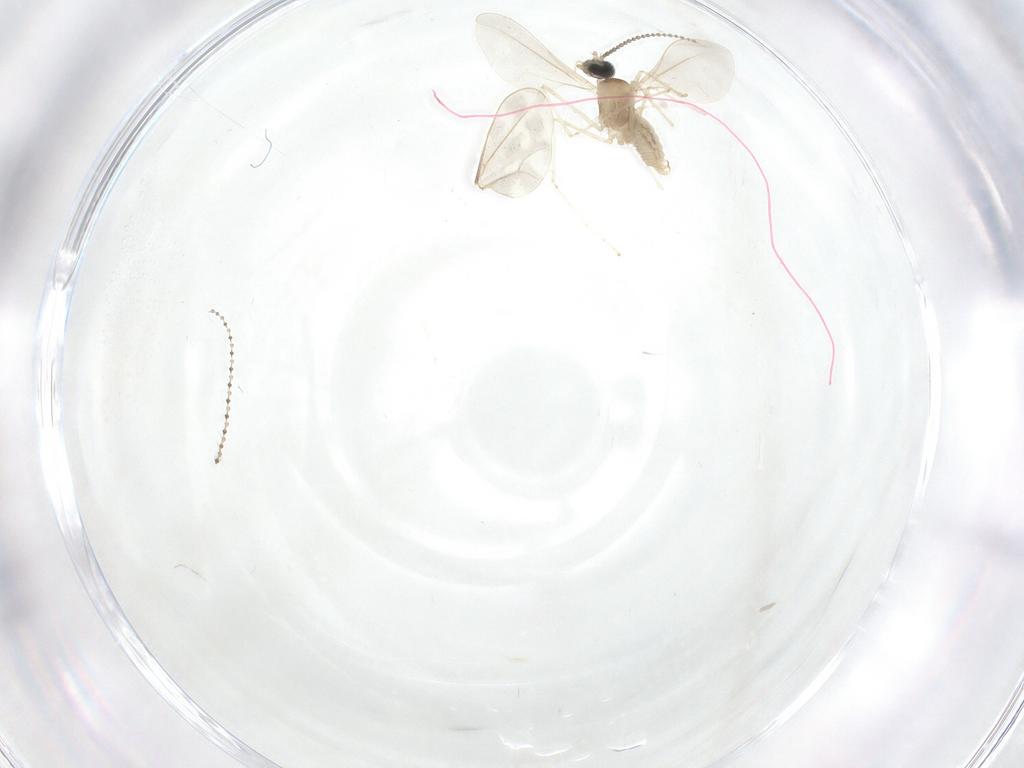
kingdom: Animalia
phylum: Arthropoda
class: Insecta
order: Diptera
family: Cecidomyiidae
